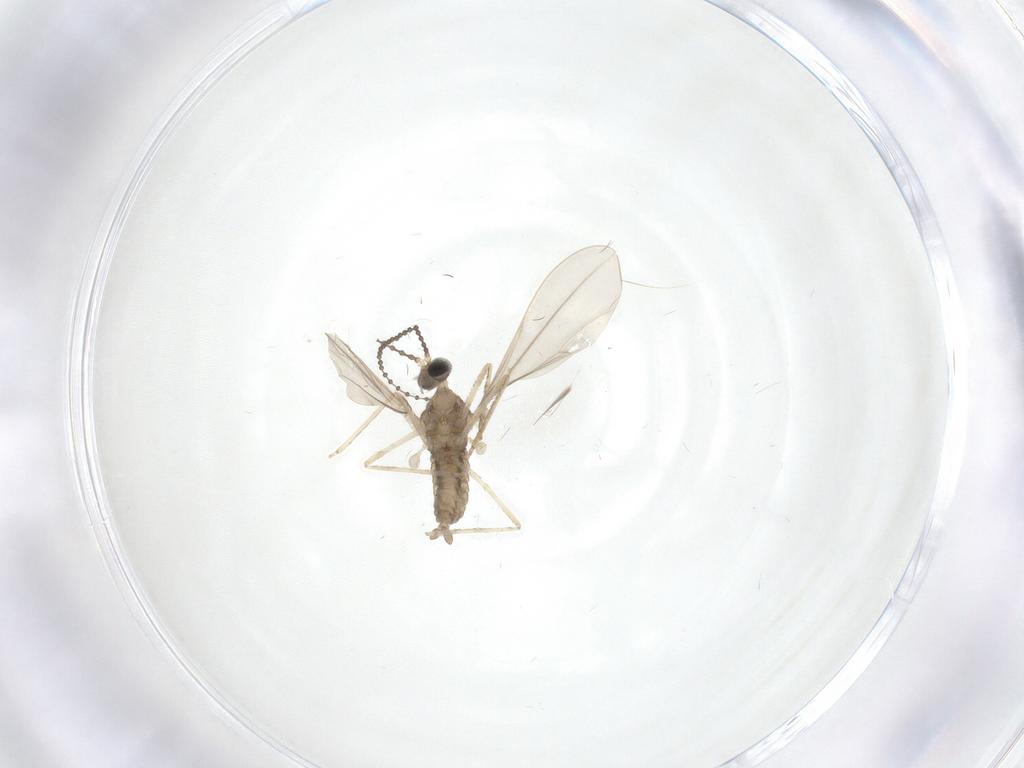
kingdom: Animalia
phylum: Arthropoda
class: Insecta
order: Diptera
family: Cecidomyiidae
